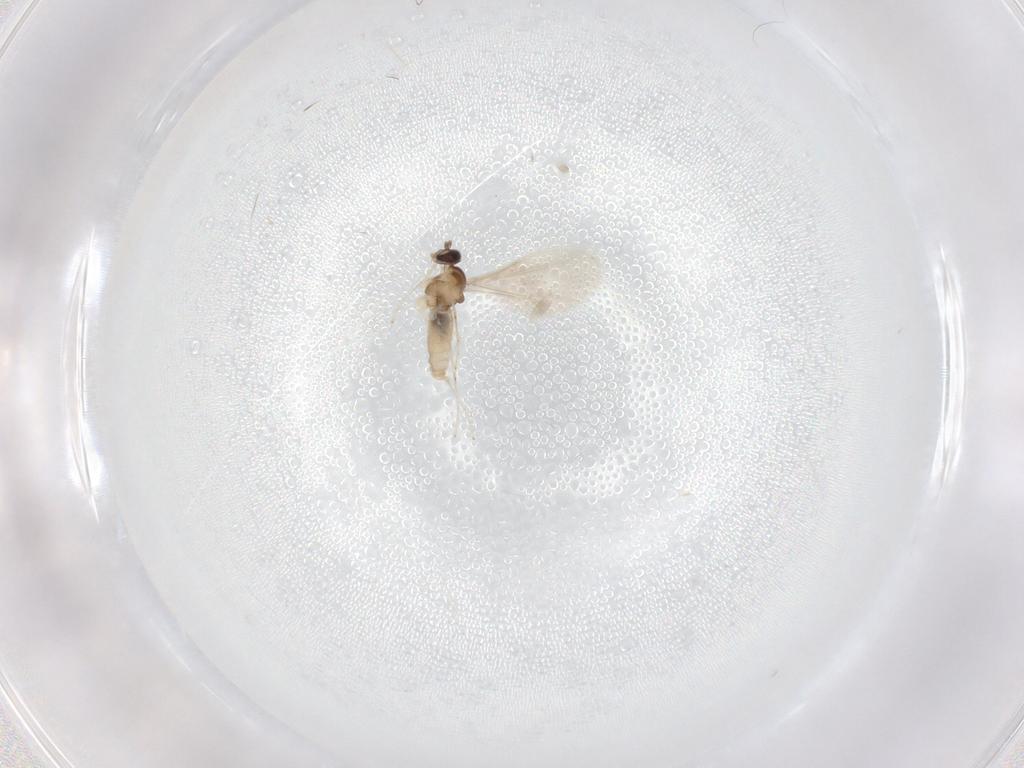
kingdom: Animalia
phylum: Arthropoda
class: Insecta
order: Diptera
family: Cecidomyiidae
